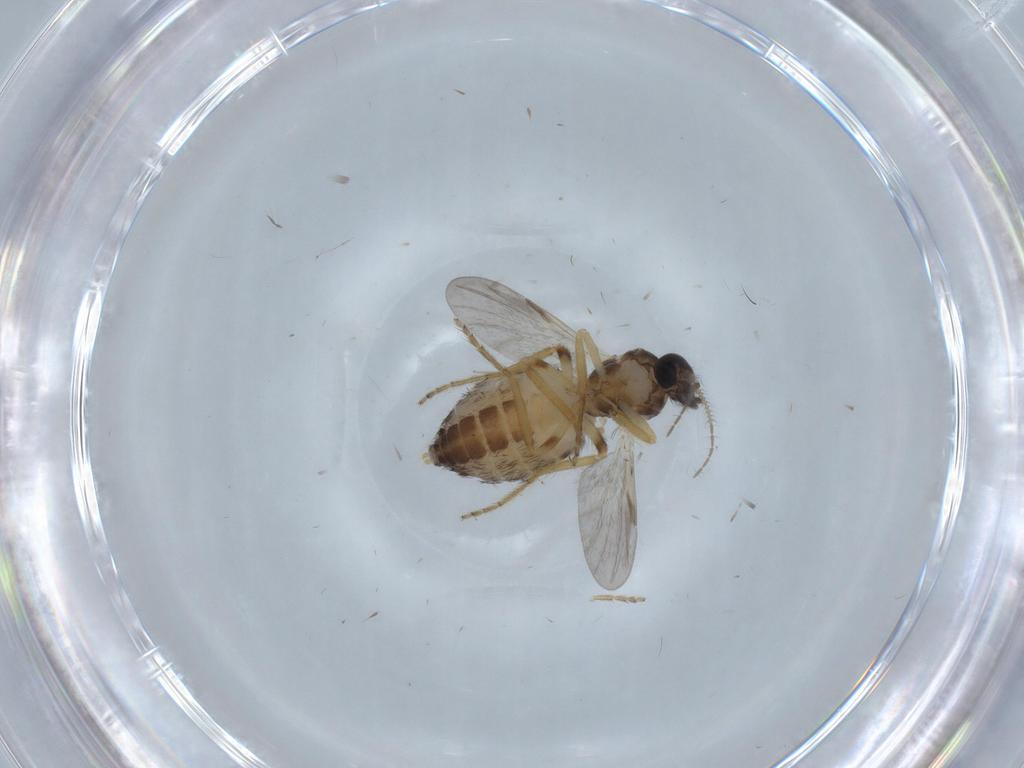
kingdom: Animalia
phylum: Arthropoda
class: Insecta
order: Diptera
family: Ceratopogonidae
